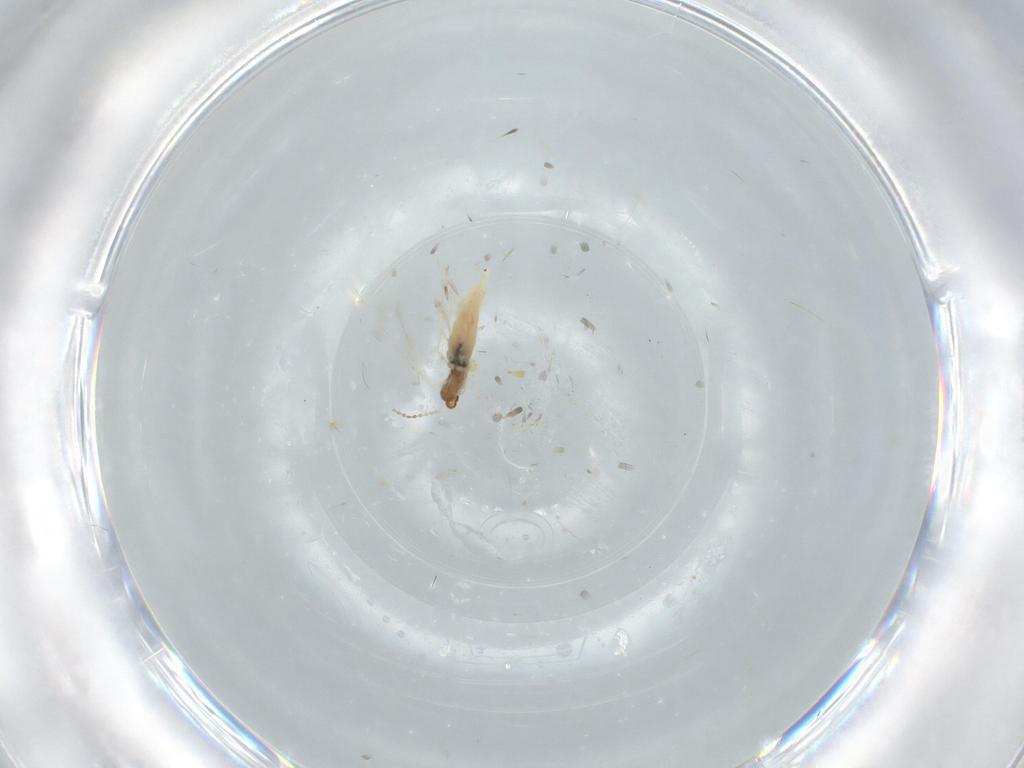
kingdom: Animalia
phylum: Arthropoda
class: Insecta
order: Diptera
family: Cecidomyiidae
